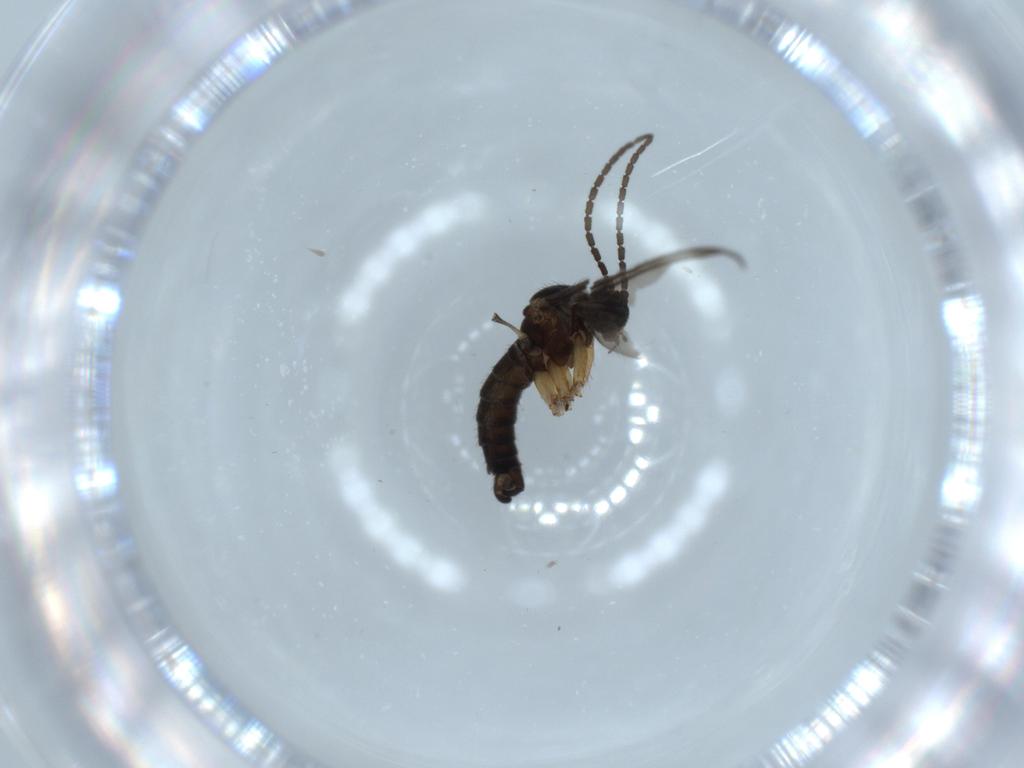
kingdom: Animalia
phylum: Arthropoda
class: Insecta
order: Diptera
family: Sciaridae
